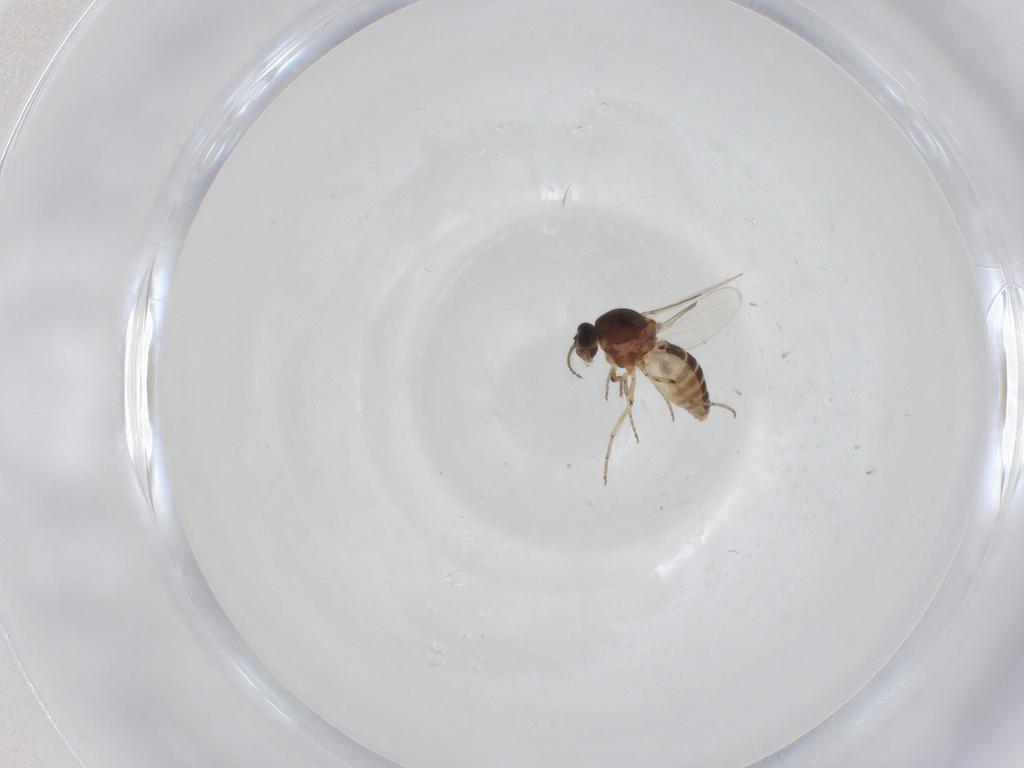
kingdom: Animalia
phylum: Arthropoda
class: Insecta
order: Diptera
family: Ceratopogonidae
